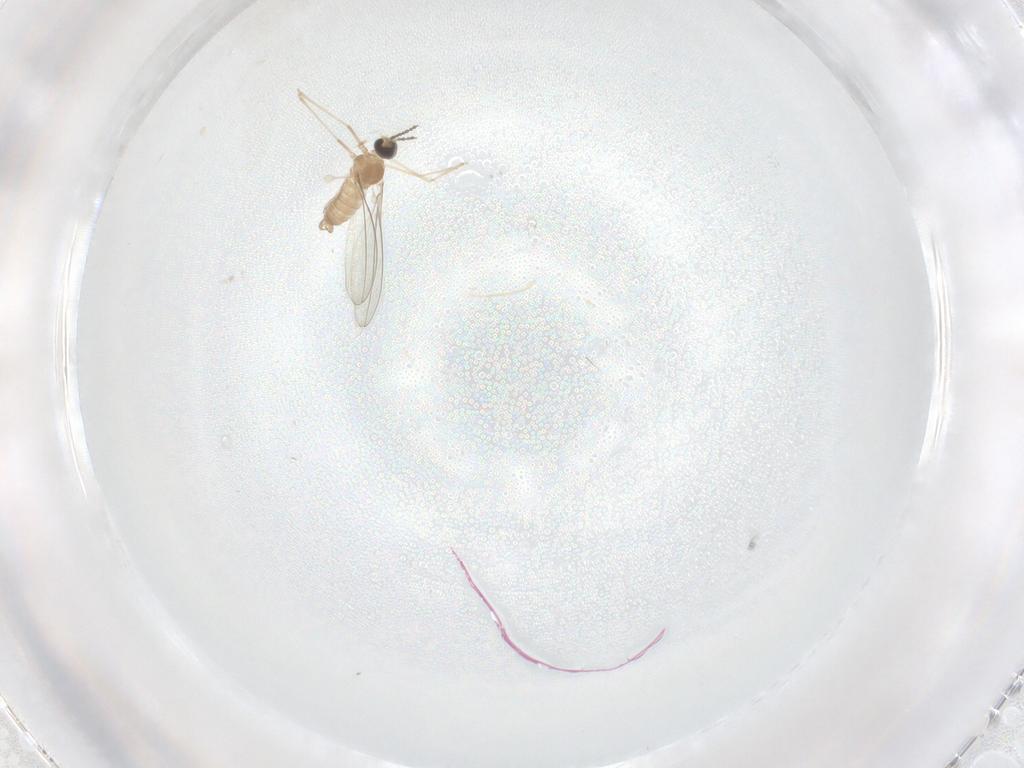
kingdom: Animalia
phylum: Arthropoda
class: Insecta
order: Diptera
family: Cecidomyiidae
